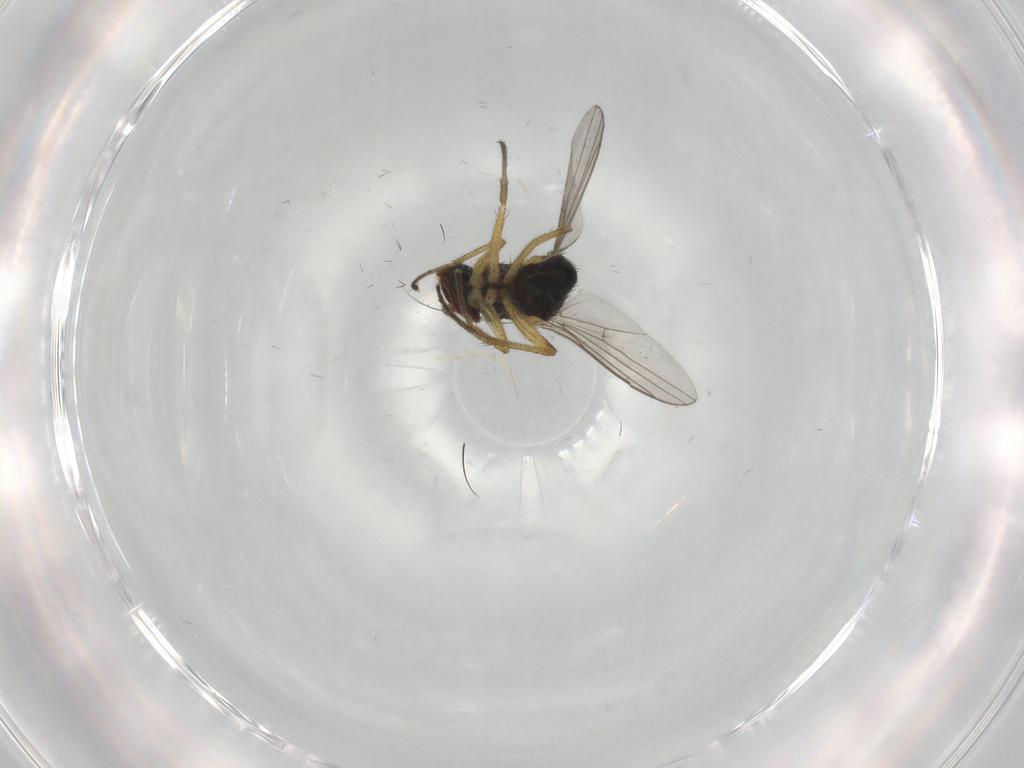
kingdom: Animalia
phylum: Arthropoda
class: Insecta
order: Diptera
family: Dolichopodidae
